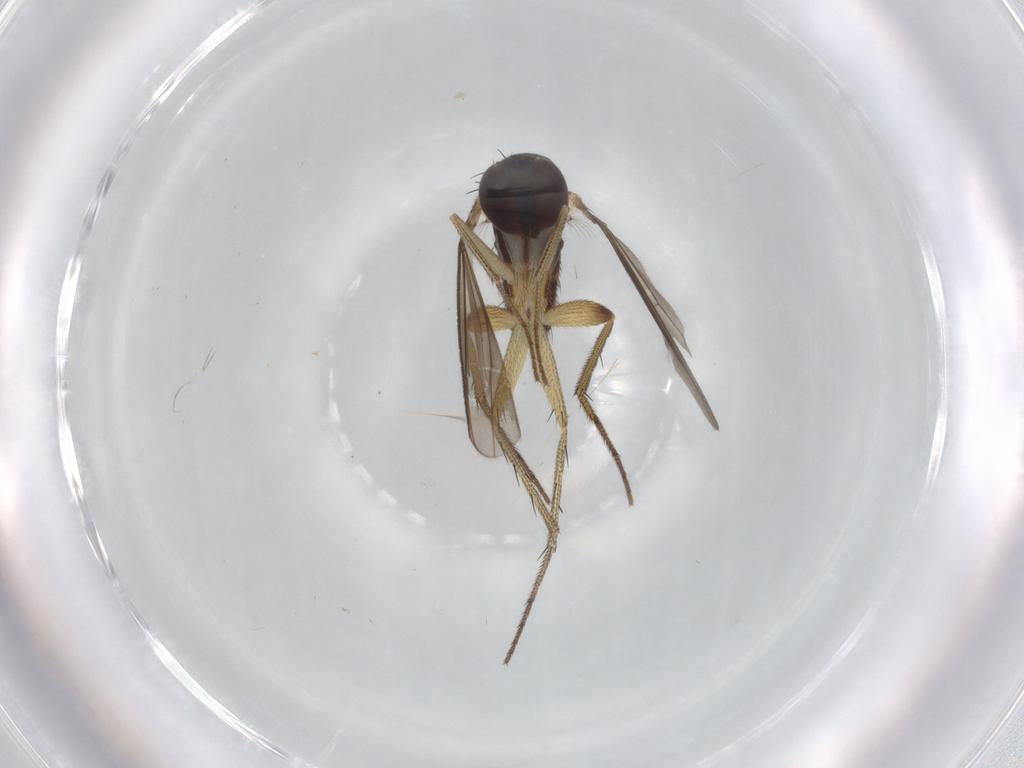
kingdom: Animalia
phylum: Arthropoda
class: Insecta
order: Diptera
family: Dolichopodidae
